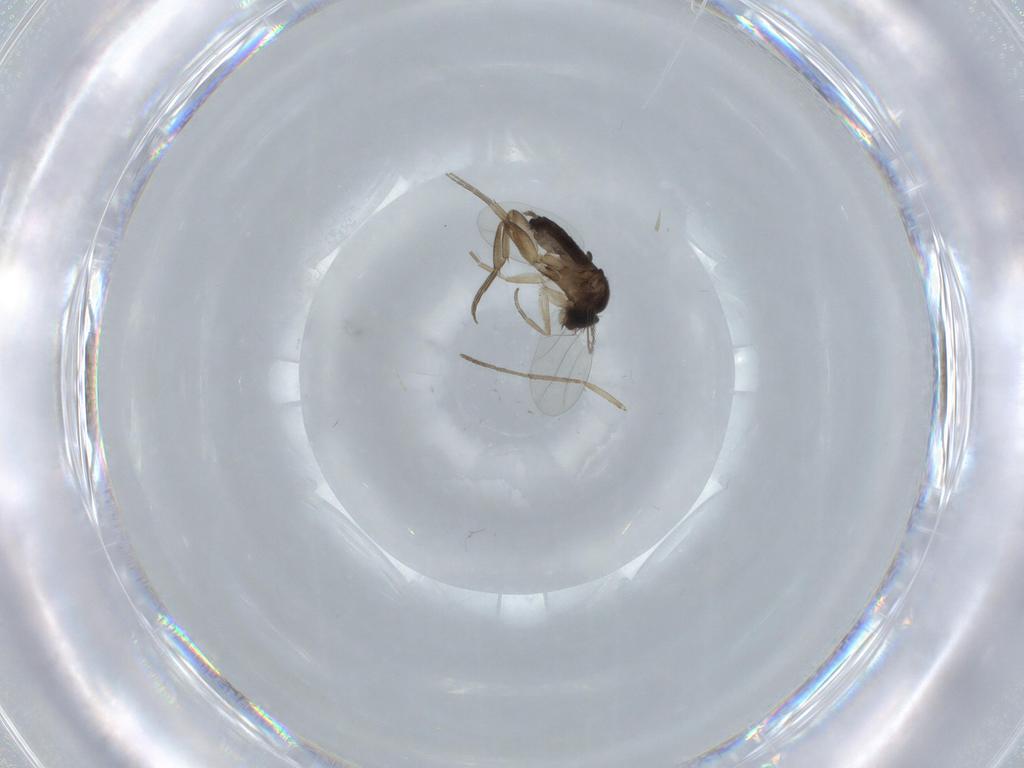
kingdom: Animalia
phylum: Arthropoda
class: Insecta
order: Diptera
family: Phoridae
